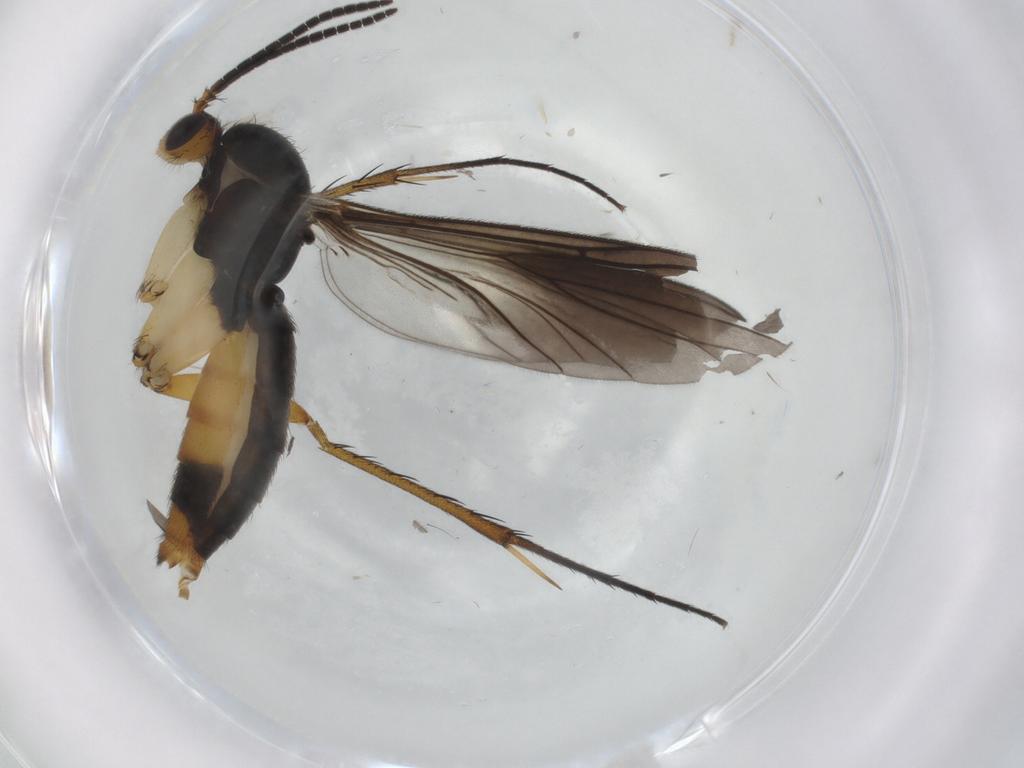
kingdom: Animalia
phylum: Arthropoda
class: Insecta
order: Diptera
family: Cecidomyiidae
